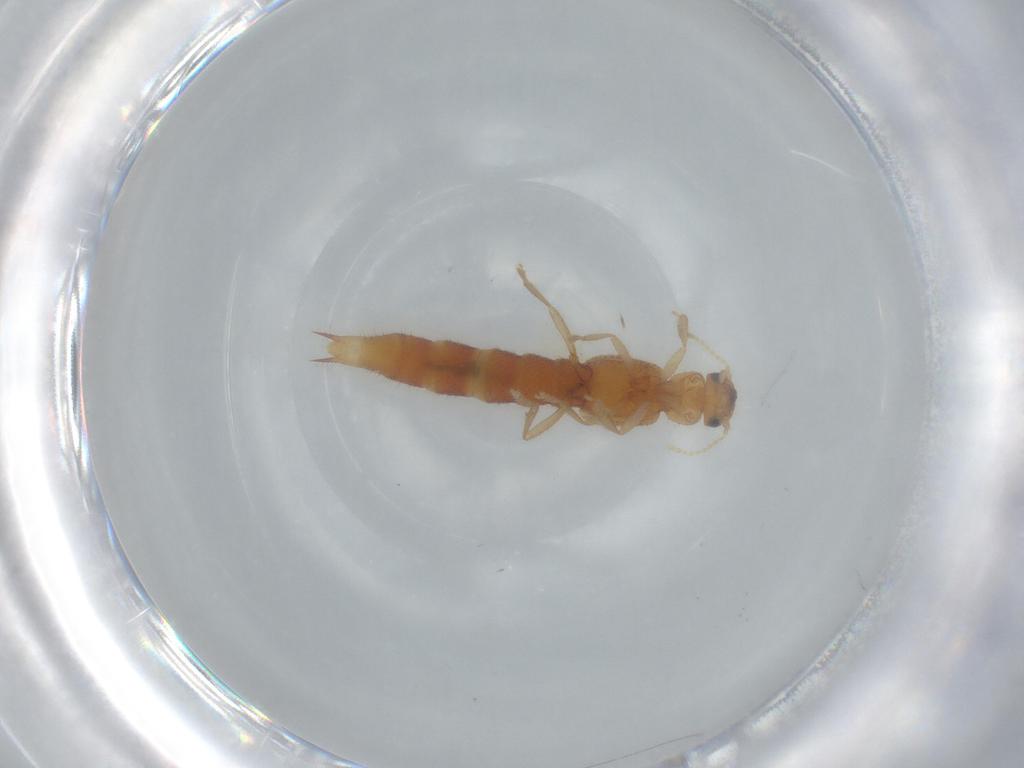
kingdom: Animalia
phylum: Arthropoda
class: Insecta
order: Coleoptera
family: Staphylinidae
